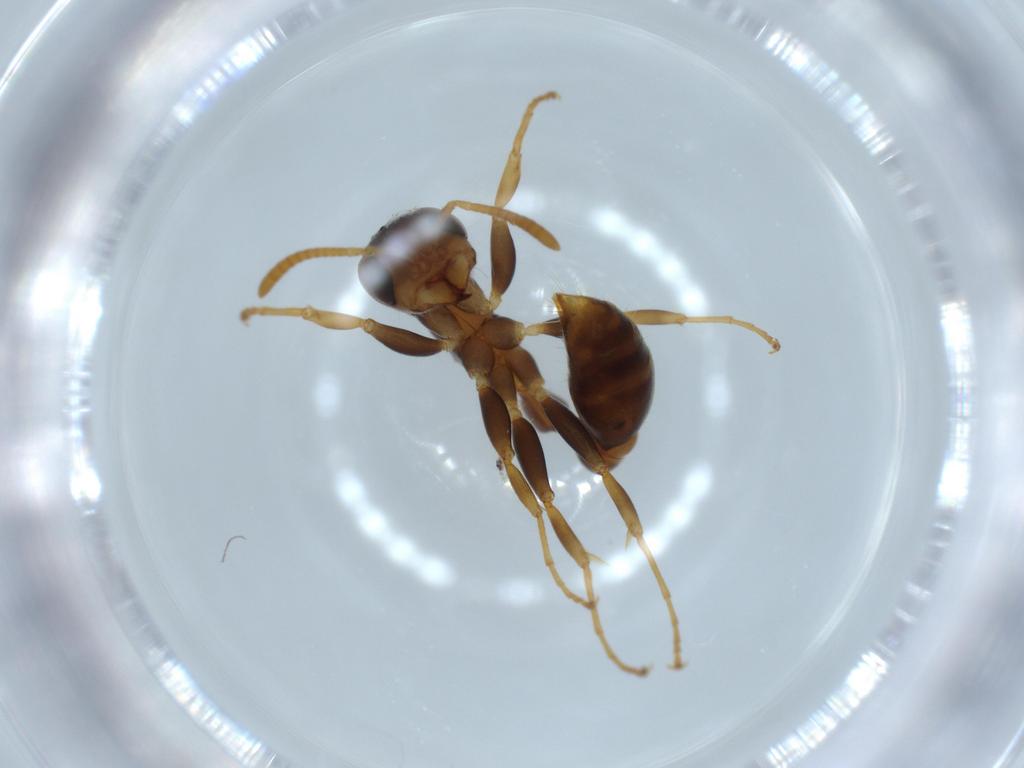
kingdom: Animalia
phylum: Arthropoda
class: Insecta
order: Hymenoptera
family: Formicidae
